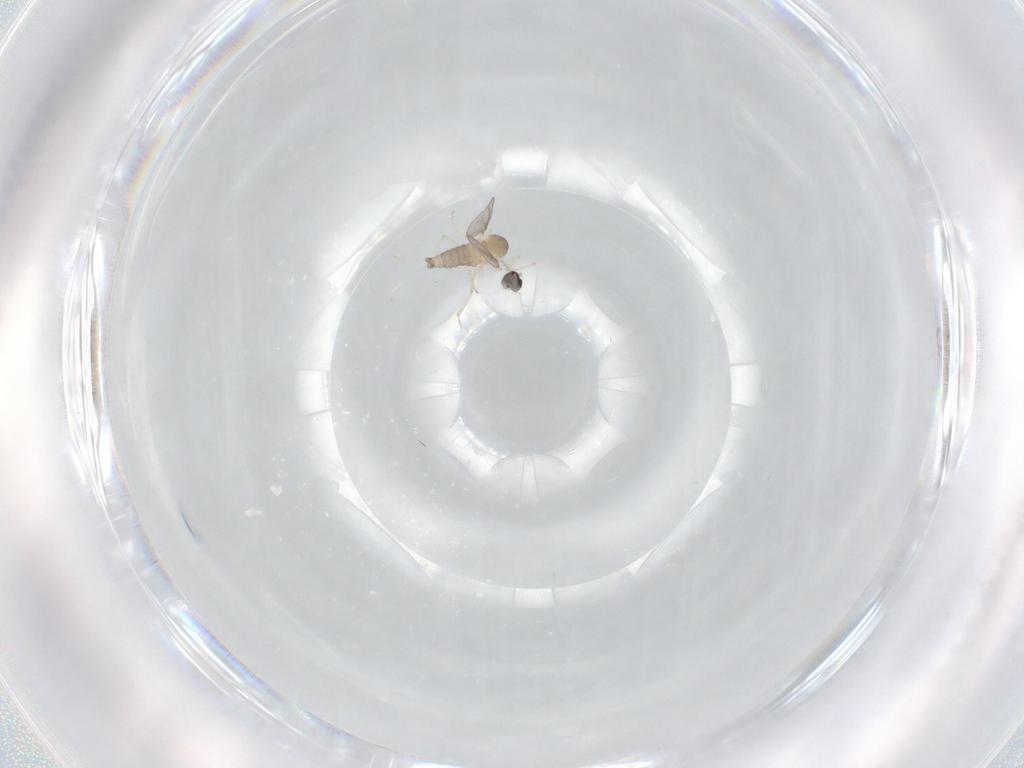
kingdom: Animalia
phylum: Arthropoda
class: Insecta
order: Diptera
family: Cecidomyiidae
